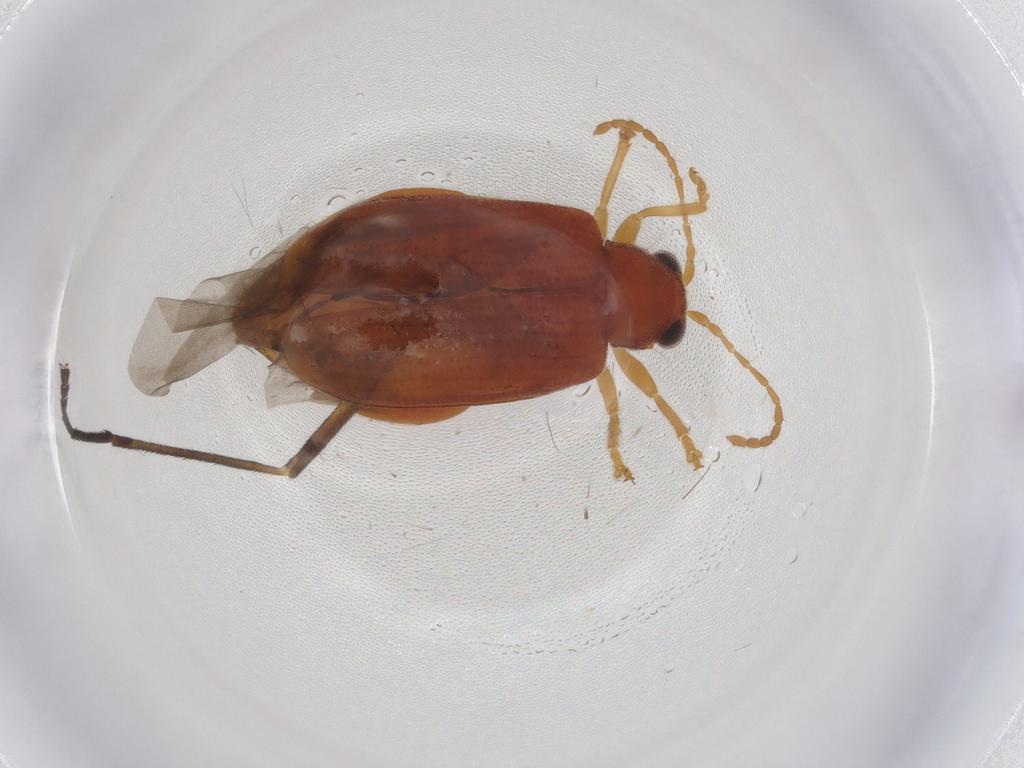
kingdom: Animalia
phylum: Arthropoda
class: Insecta
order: Coleoptera
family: Chrysomelidae
